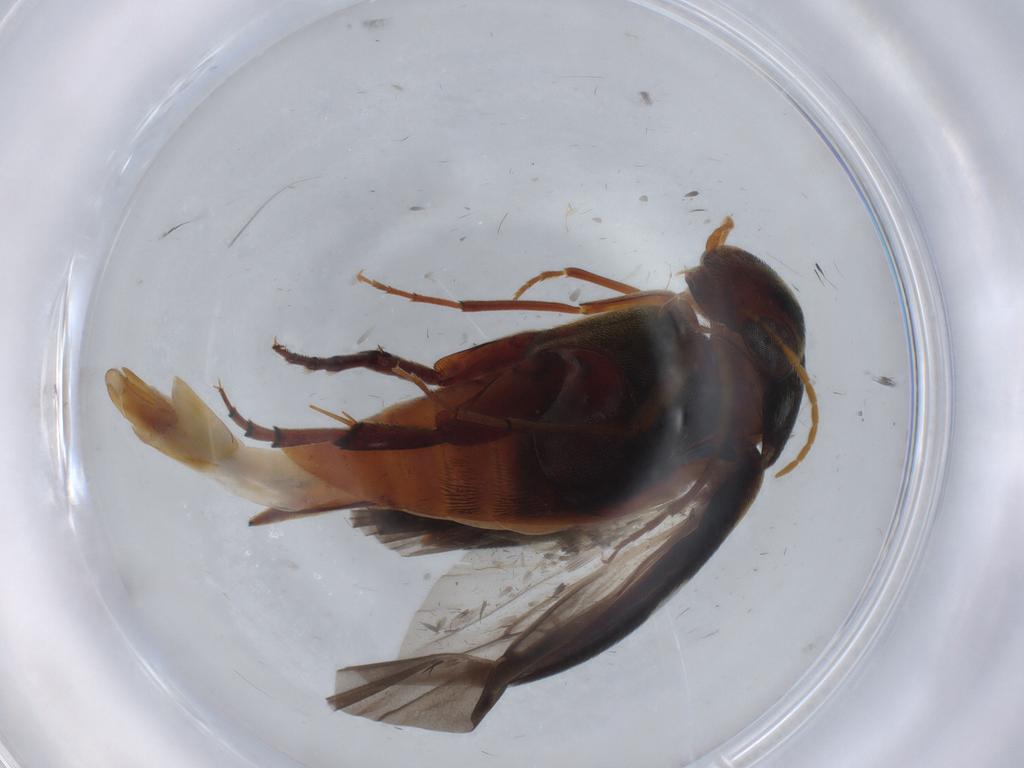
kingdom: Animalia
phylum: Arthropoda
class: Insecta
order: Coleoptera
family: Mordellidae
